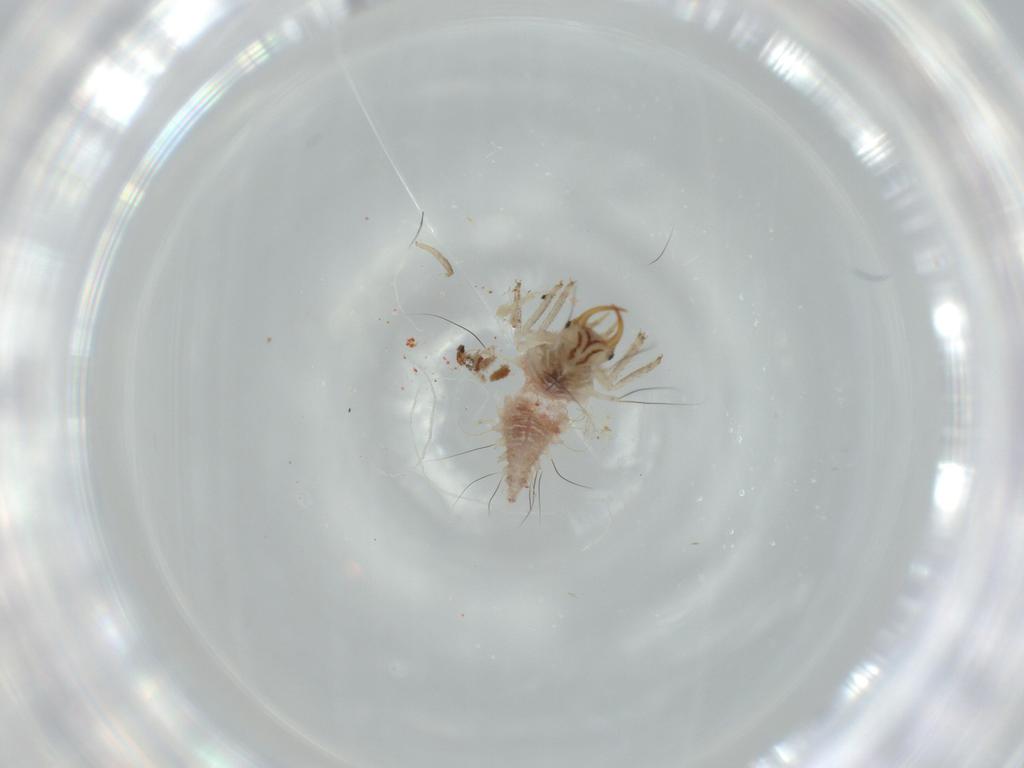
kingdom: Animalia
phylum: Arthropoda
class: Insecta
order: Neuroptera
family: Chrysopidae
